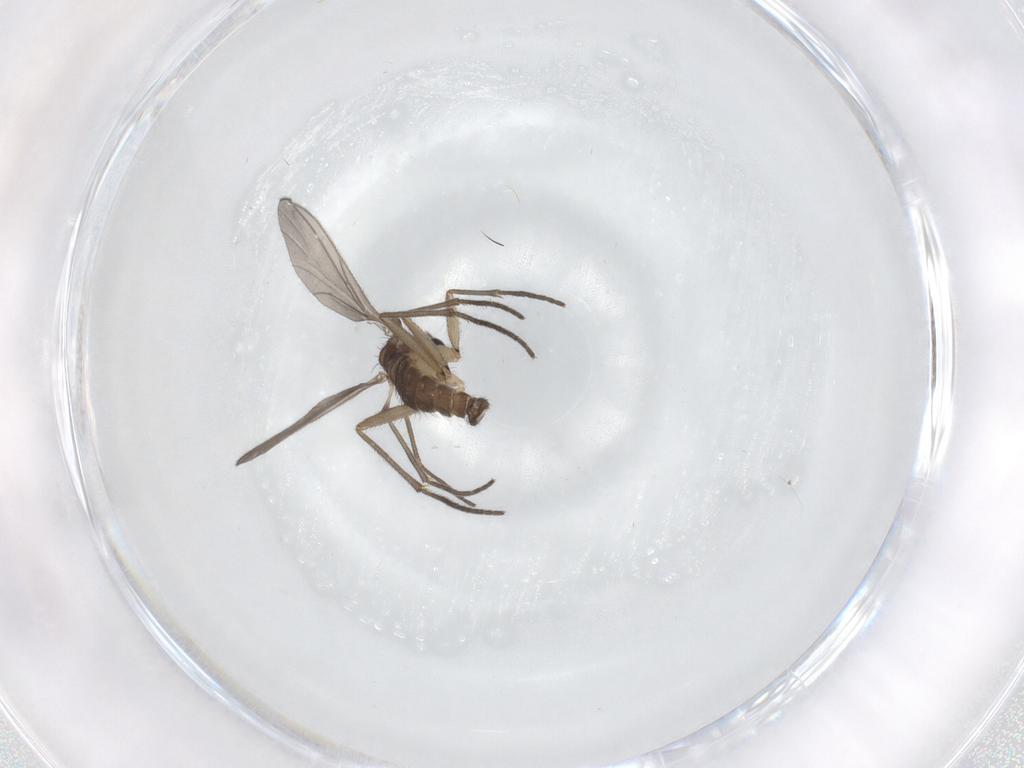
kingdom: Animalia
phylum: Arthropoda
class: Insecta
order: Diptera
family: Sciaridae
